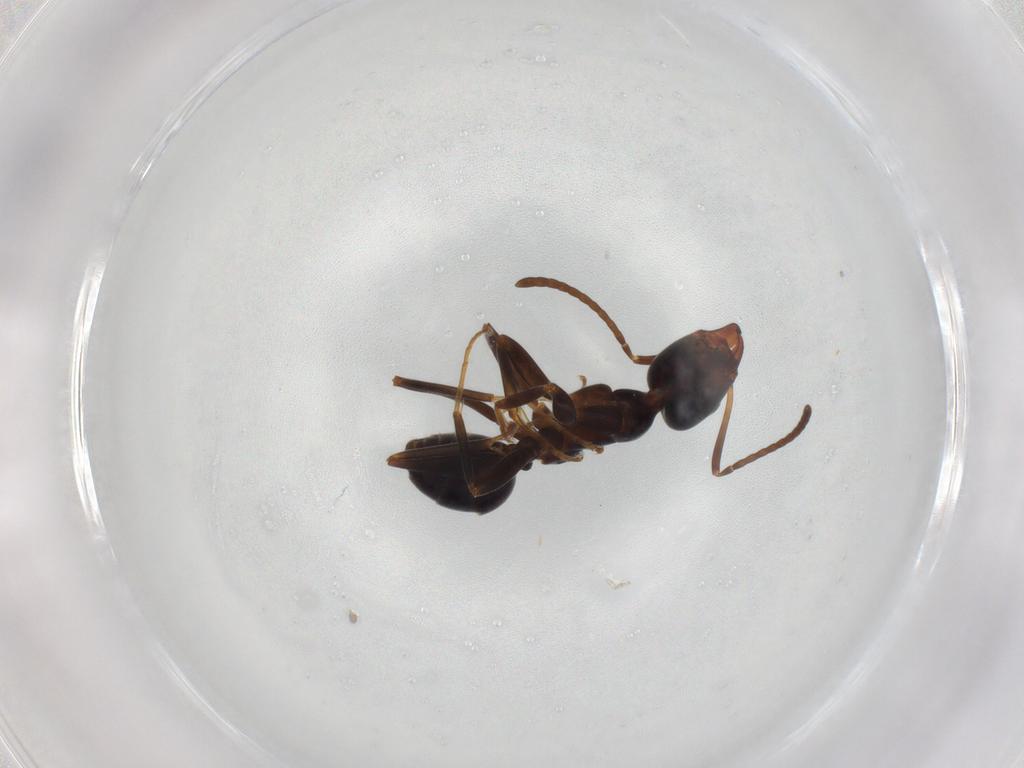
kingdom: Animalia
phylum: Arthropoda
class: Insecta
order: Hymenoptera
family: Formicidae
